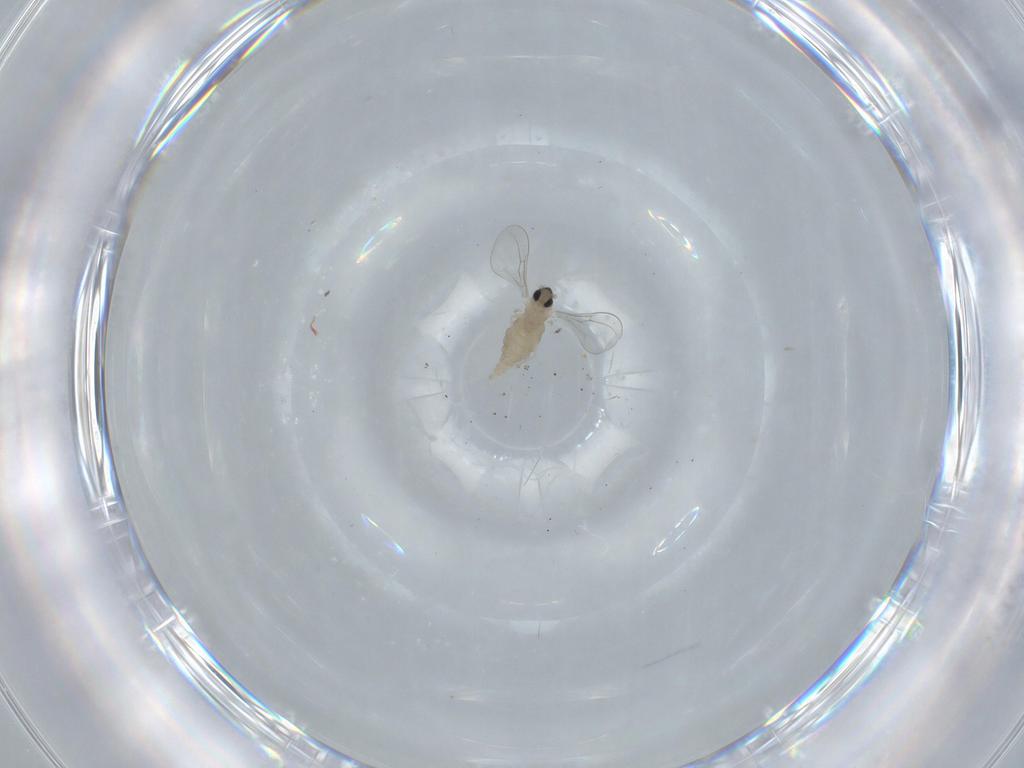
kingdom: Animalia
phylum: Arthropoda
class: Insecta
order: Diptera
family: Cecidomyiidae
